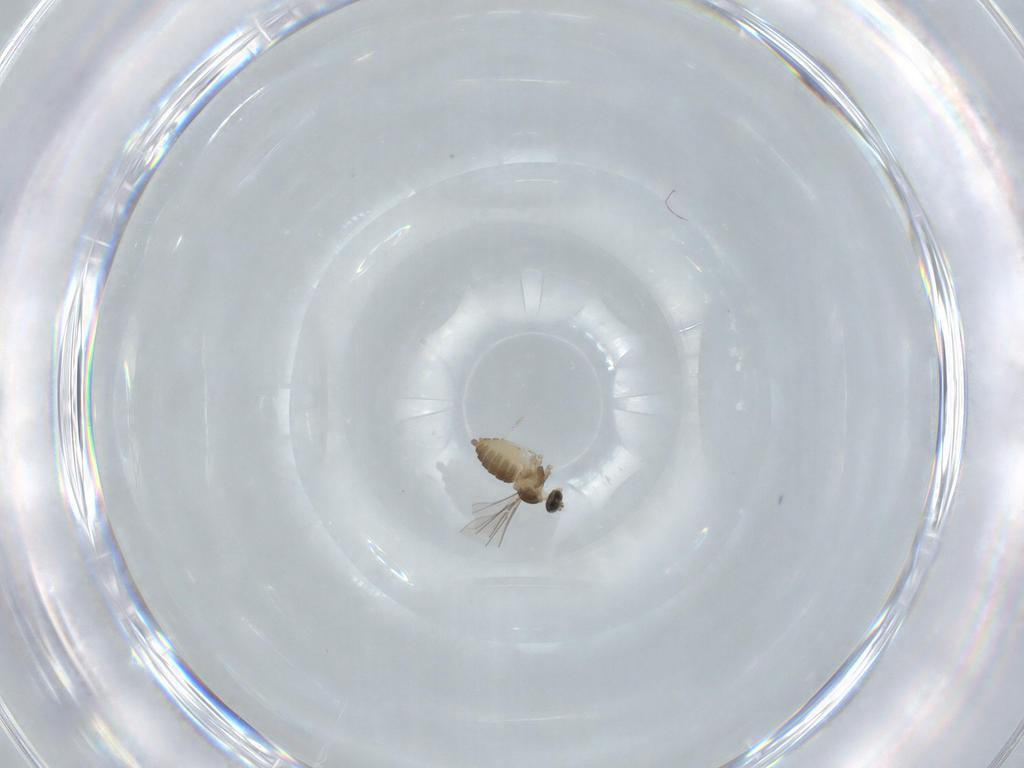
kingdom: Animalia
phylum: Arthropoda
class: Insecta
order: Diptera
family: Cecidomyiidae
